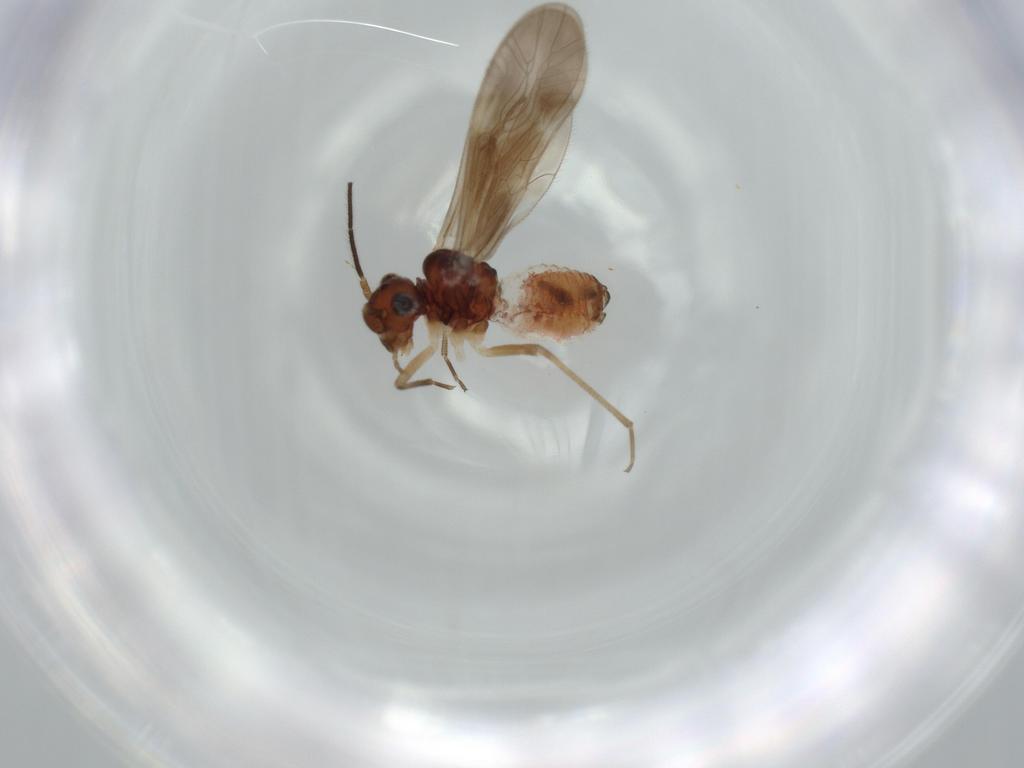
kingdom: Animalia
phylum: Arthropoda
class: Insecta
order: Psocodea
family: Caeciliusidae
